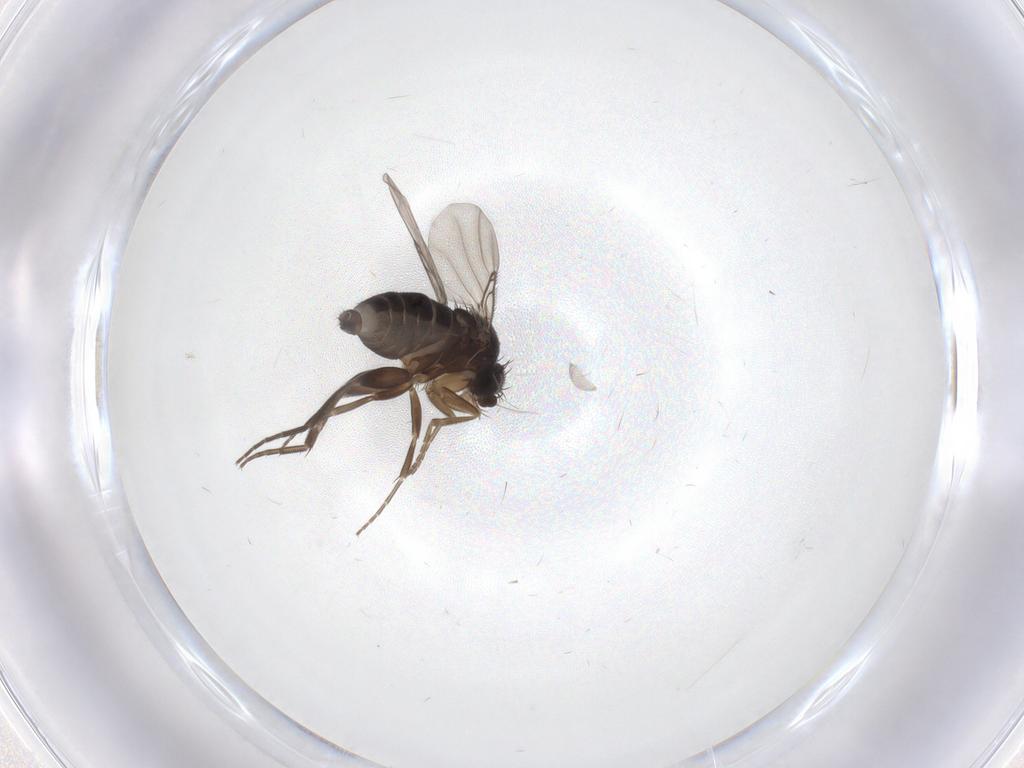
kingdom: Animalia
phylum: Arthropoda
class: Insecta
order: Diptera
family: Phoridae
